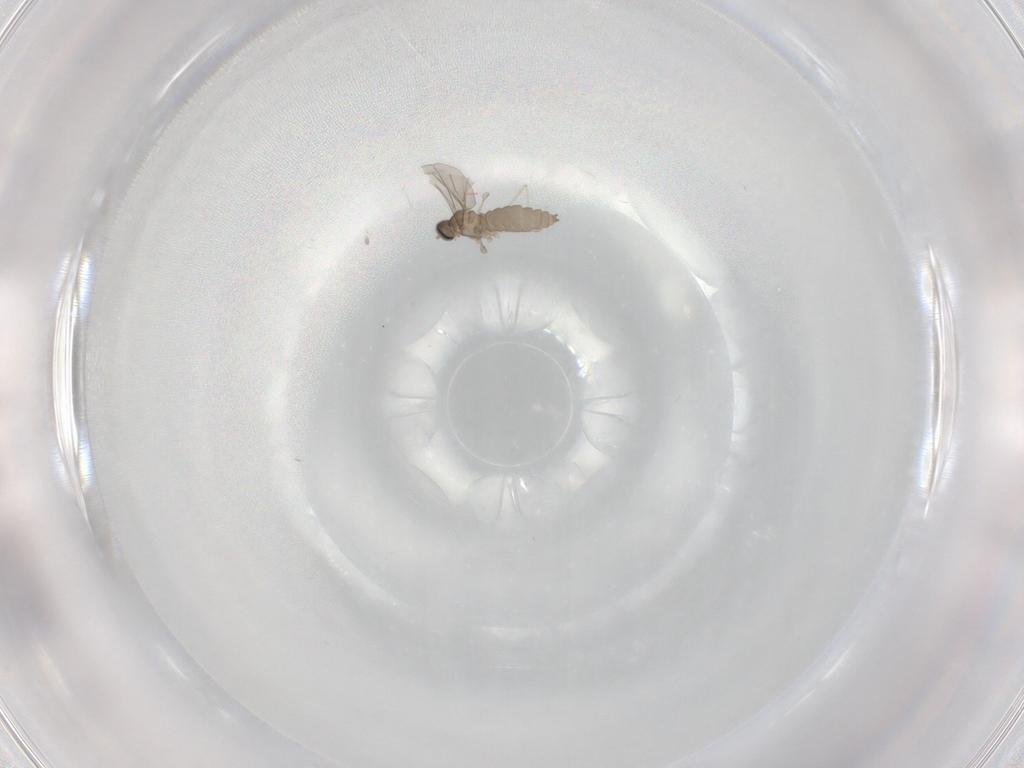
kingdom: Animalia
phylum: Arthropoda
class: Insecta
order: Diptera
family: Cecidomyiidae
